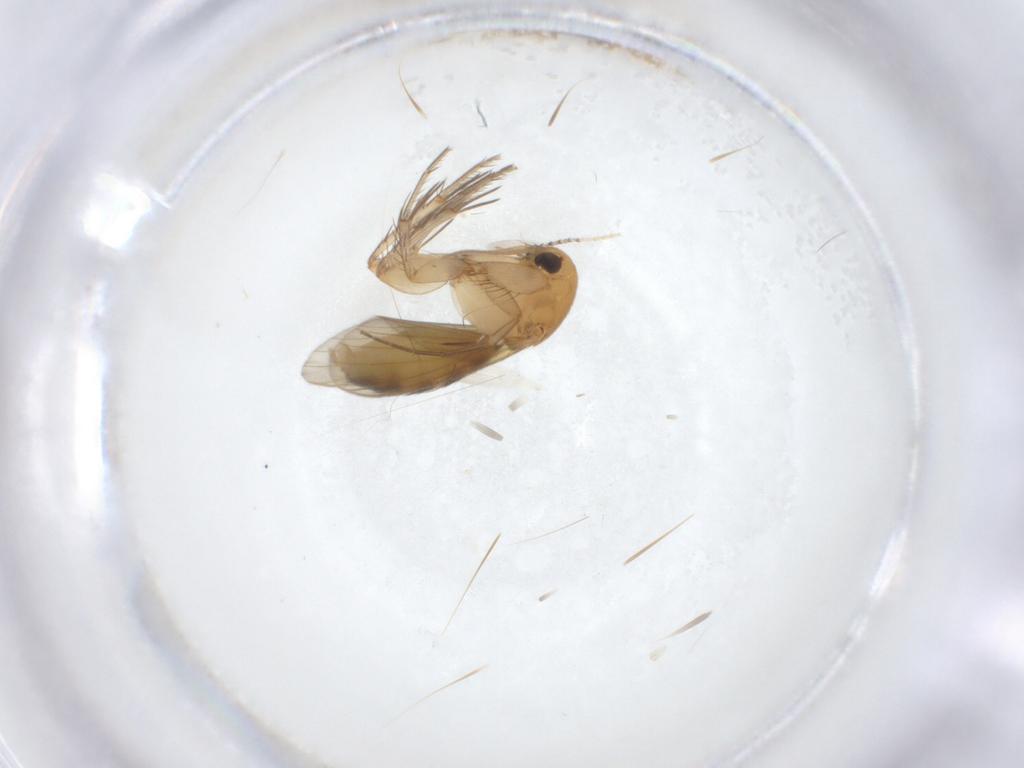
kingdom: Animalia
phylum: Arthropoda
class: Insecta
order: Diptera
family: Mycetophilidae
